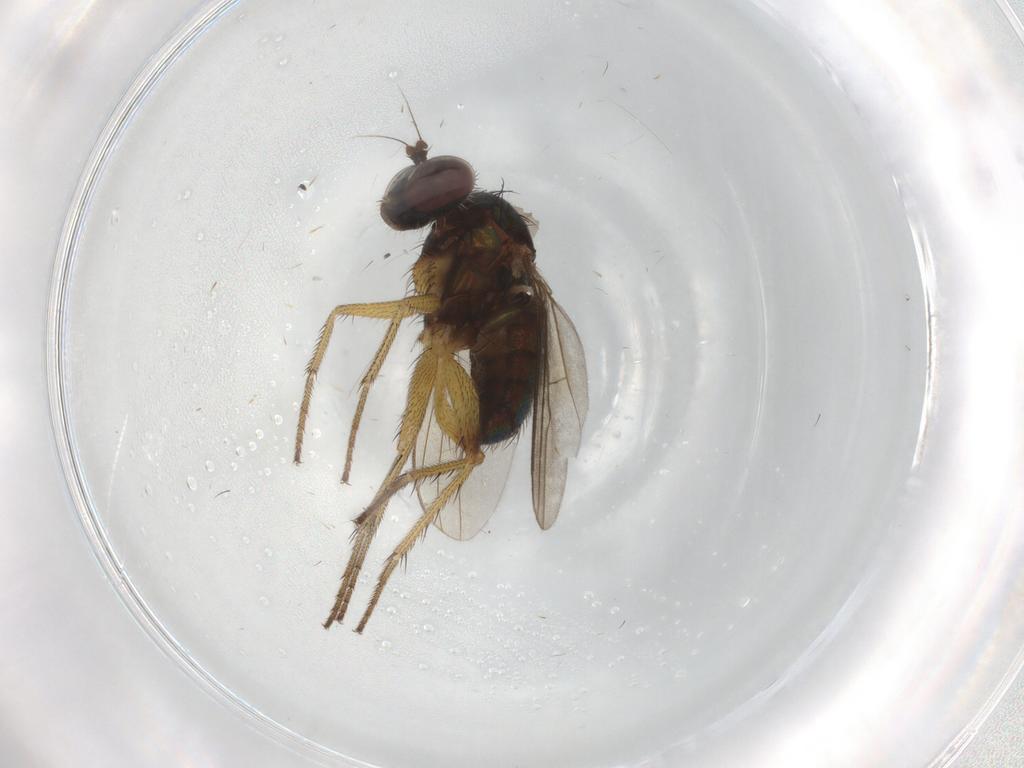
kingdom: Animalia
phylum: Arthropoda
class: Insecta
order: Diptera
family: Dolichopodidae
